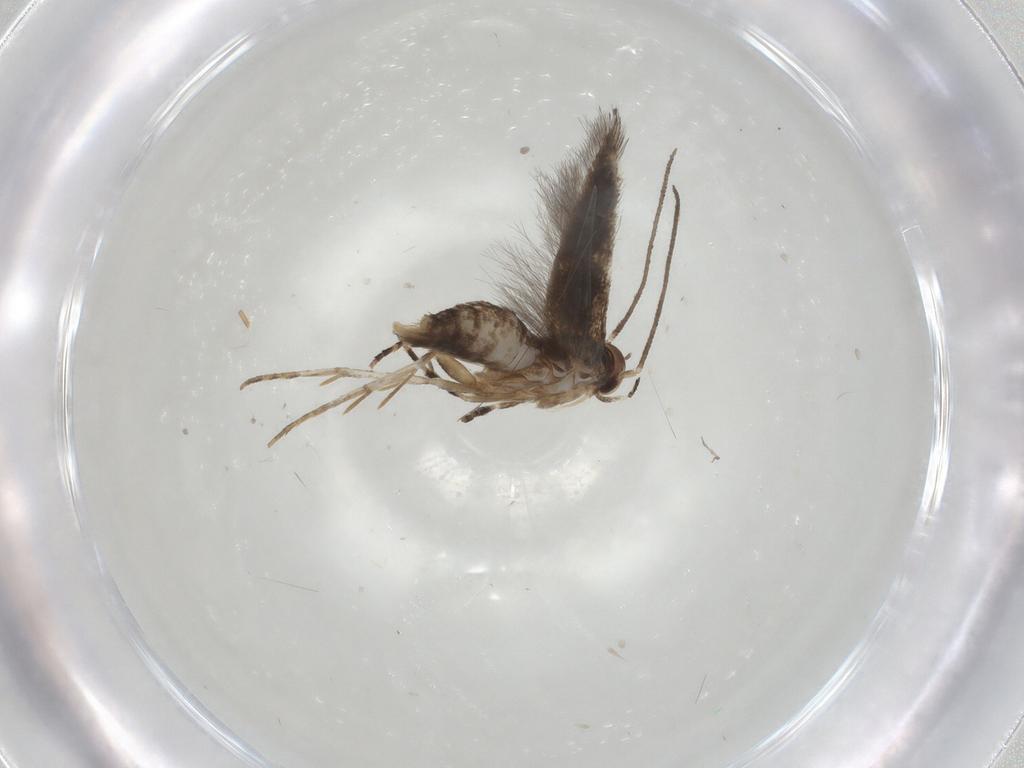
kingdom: Animalia
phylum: Arthropoda
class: Insecta
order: Lepidoptera
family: Elachistidae
